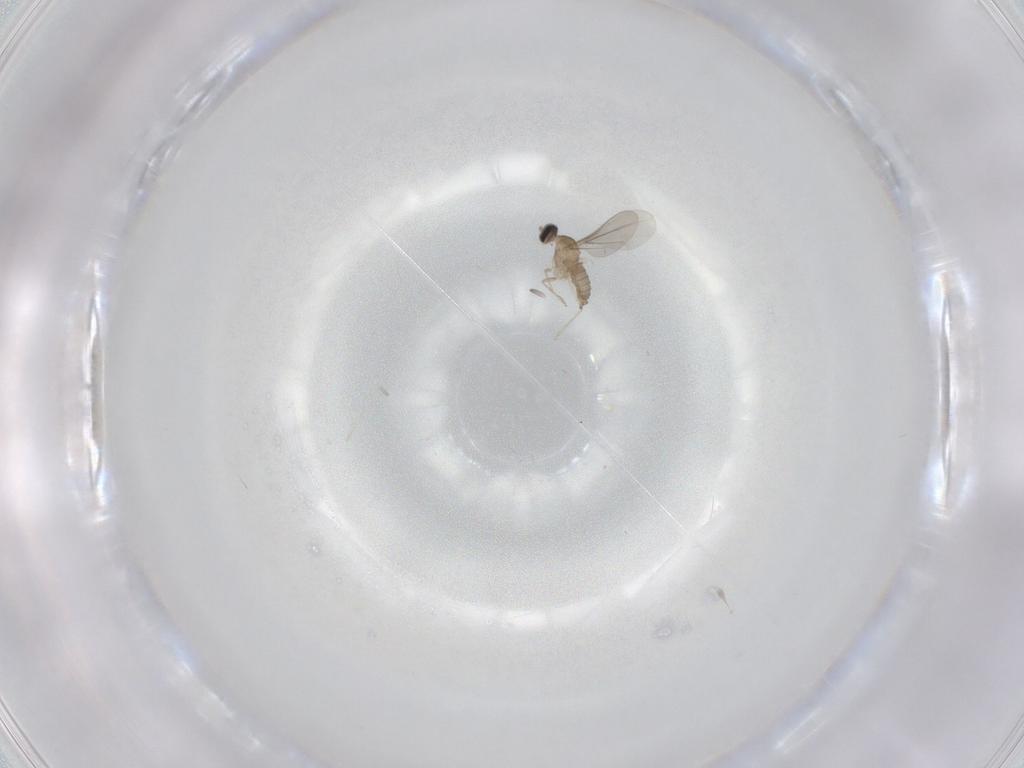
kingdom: Animalia
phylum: Arthropoda
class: Insecta
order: Diptera
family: Cecidomyiidae
